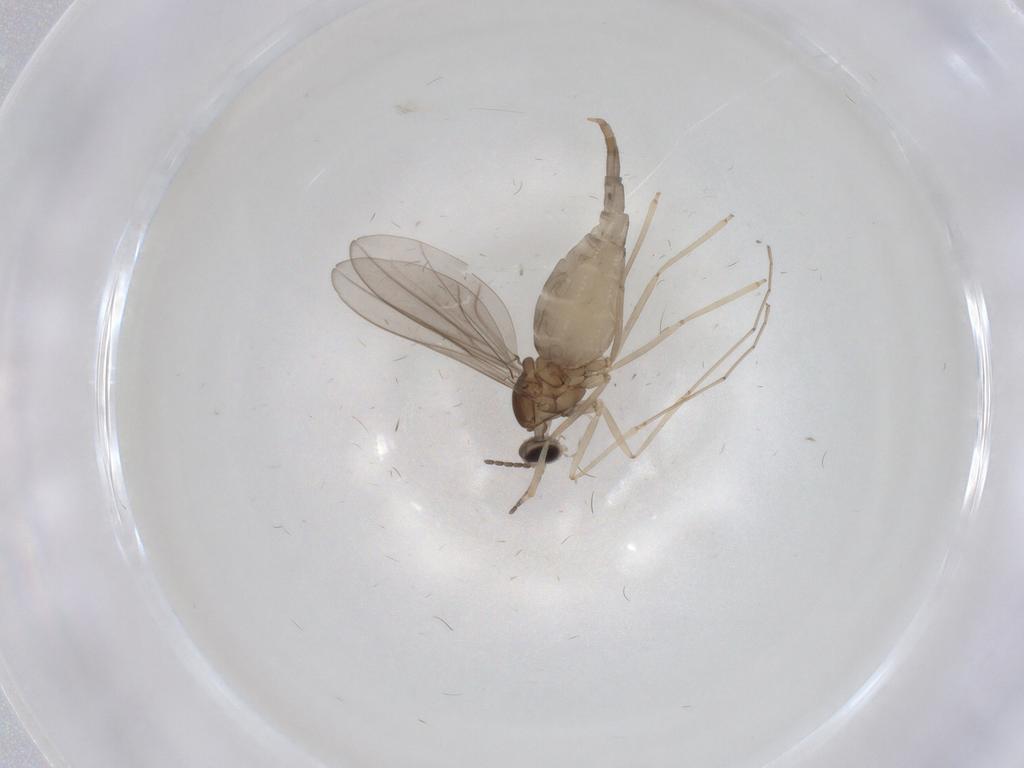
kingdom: Animalia
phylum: Arthropoda
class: Insecta
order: Diptera
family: Cecidomyiidae
